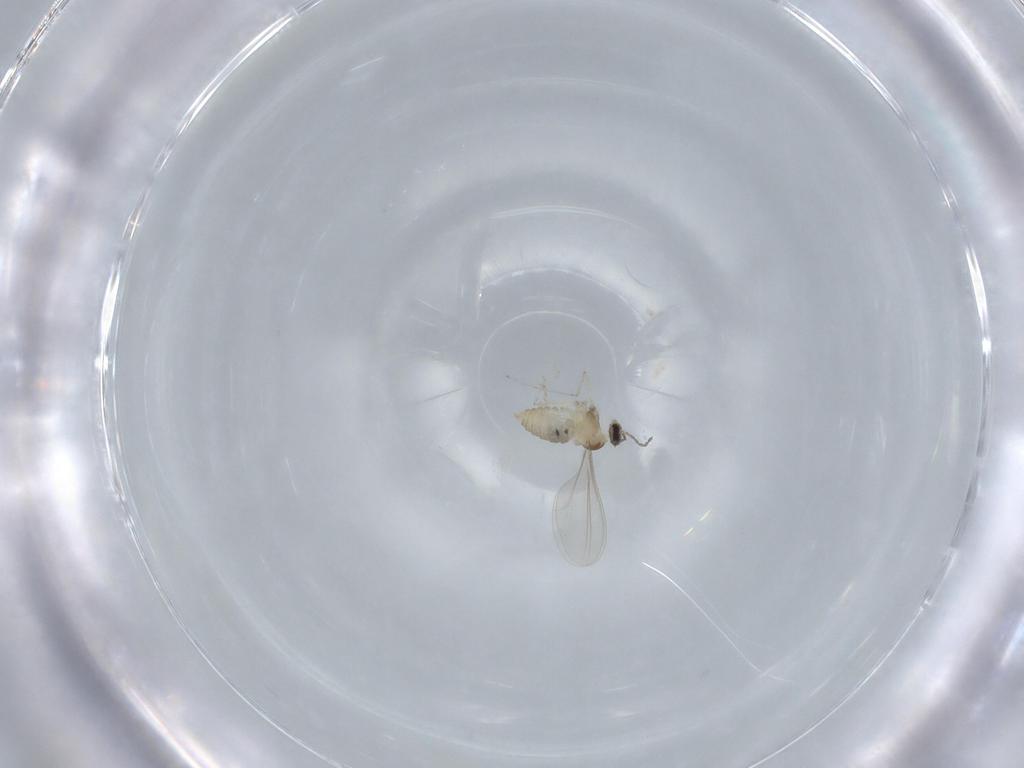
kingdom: Animalia
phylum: Arthropoda
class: Insecta
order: Diptera
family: Cecidomyiidae
